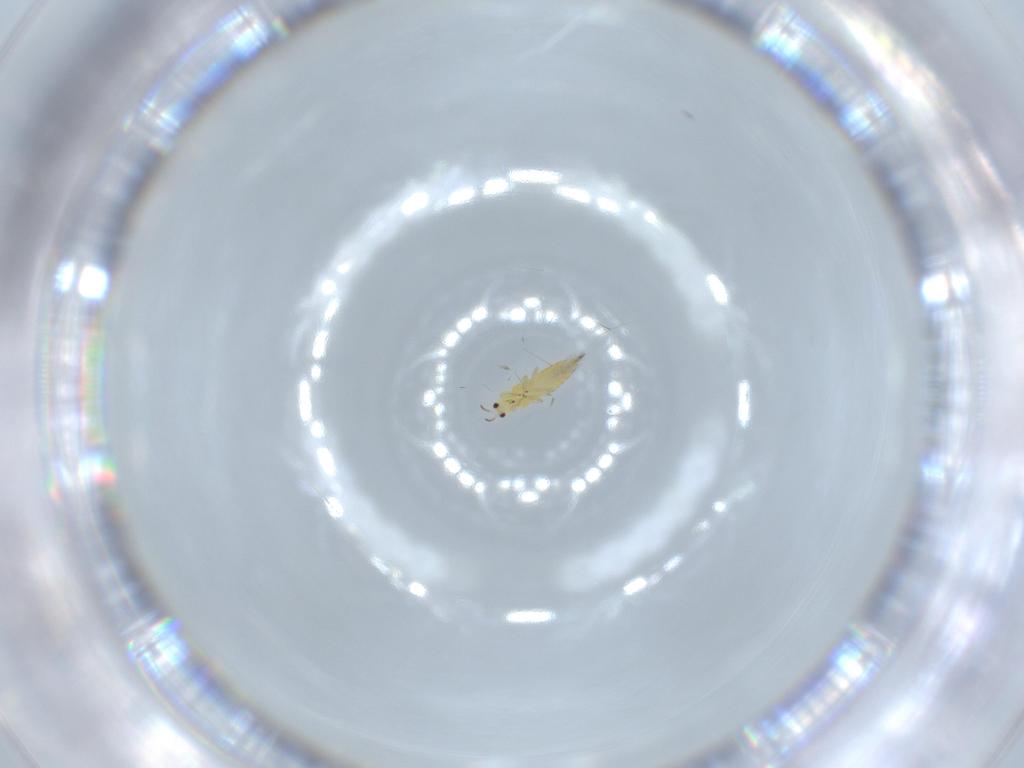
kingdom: Animalia
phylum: Arthropoda
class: Insecta
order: Thysanoptera
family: Thripidae
